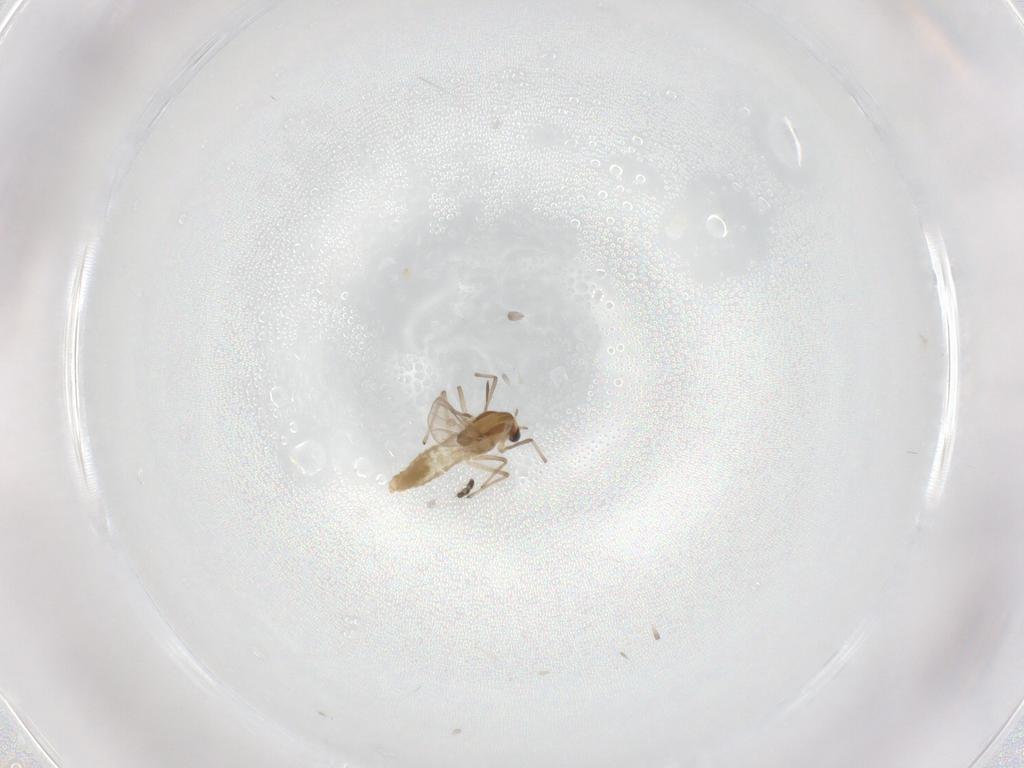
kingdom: Animalia
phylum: Arthropoda
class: Insecta
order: Diptera
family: Chironomidae
